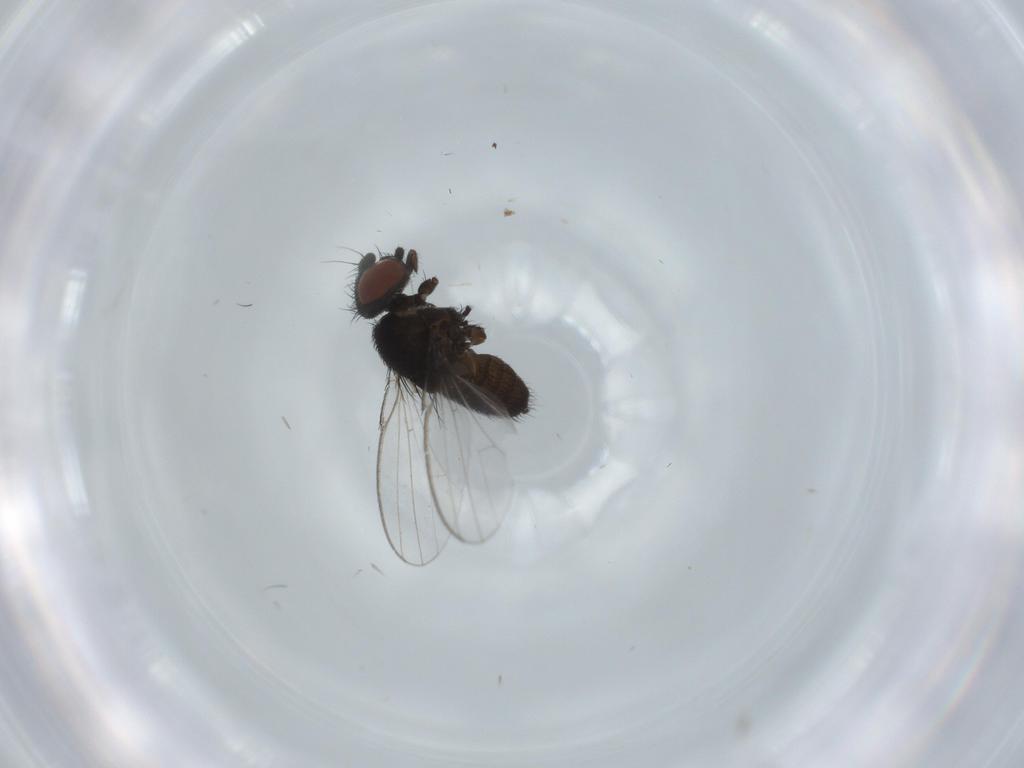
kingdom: Animalia
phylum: Arthropoda
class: Insecta
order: Diptera
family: Milichiidae
